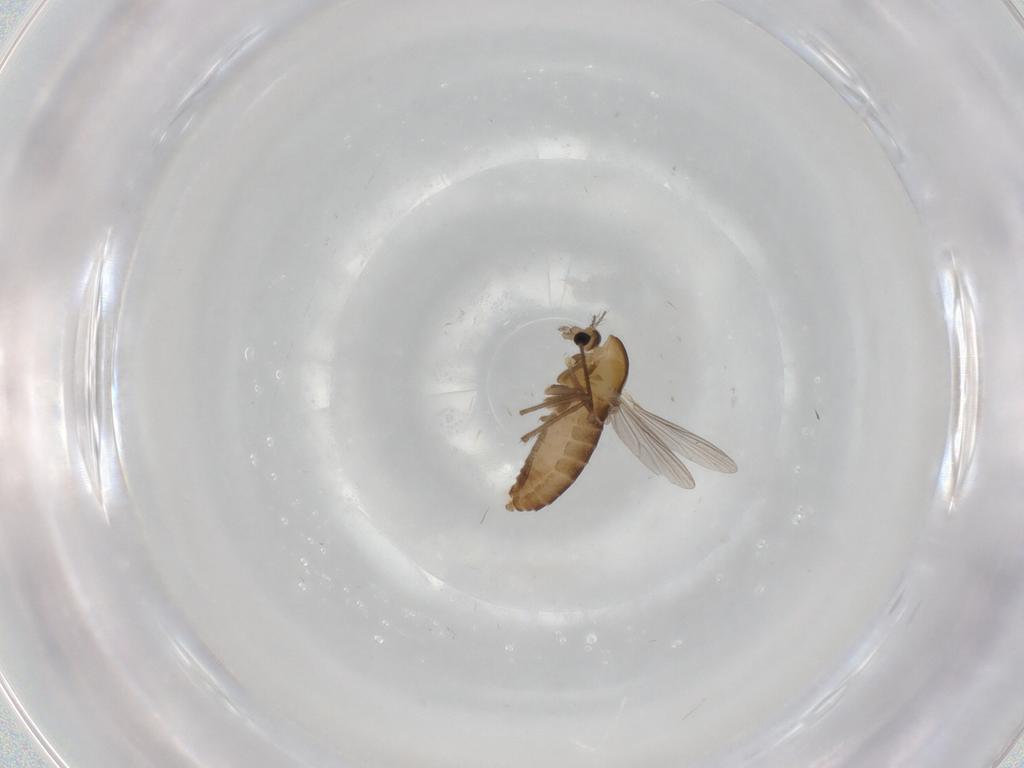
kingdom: Animalia
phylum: Arthropoda
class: Insecta
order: Diptera
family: Chironomidae
